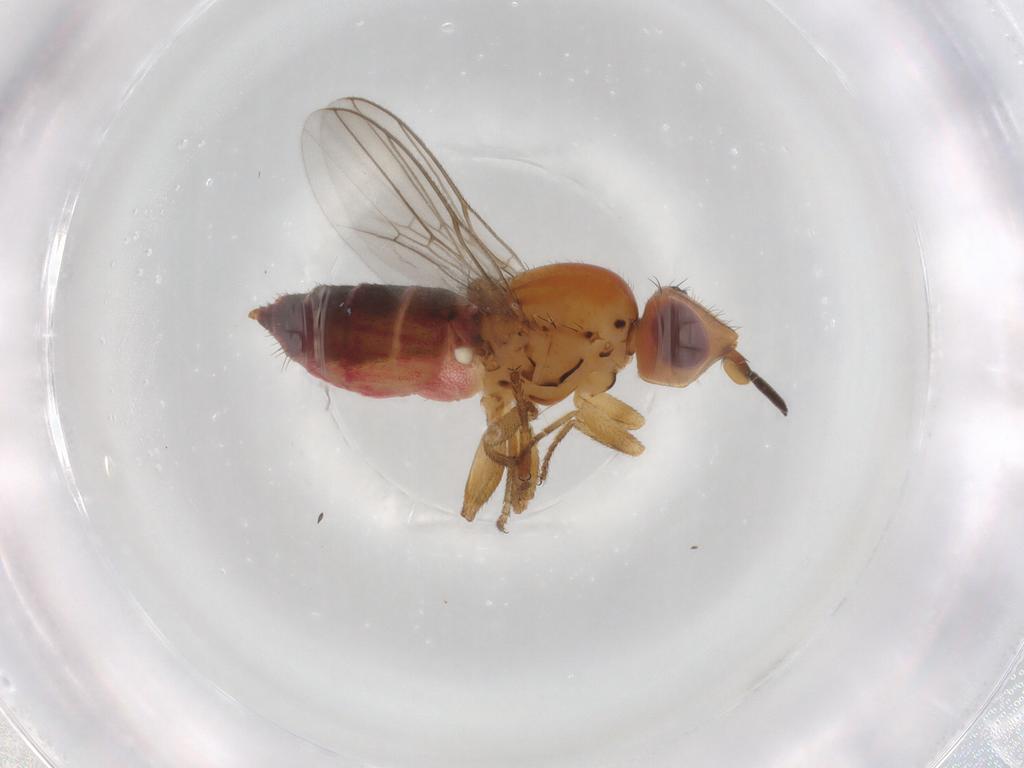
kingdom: Animalia
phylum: Arthropoda
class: Insecta
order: Diptera
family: Chloropidae
